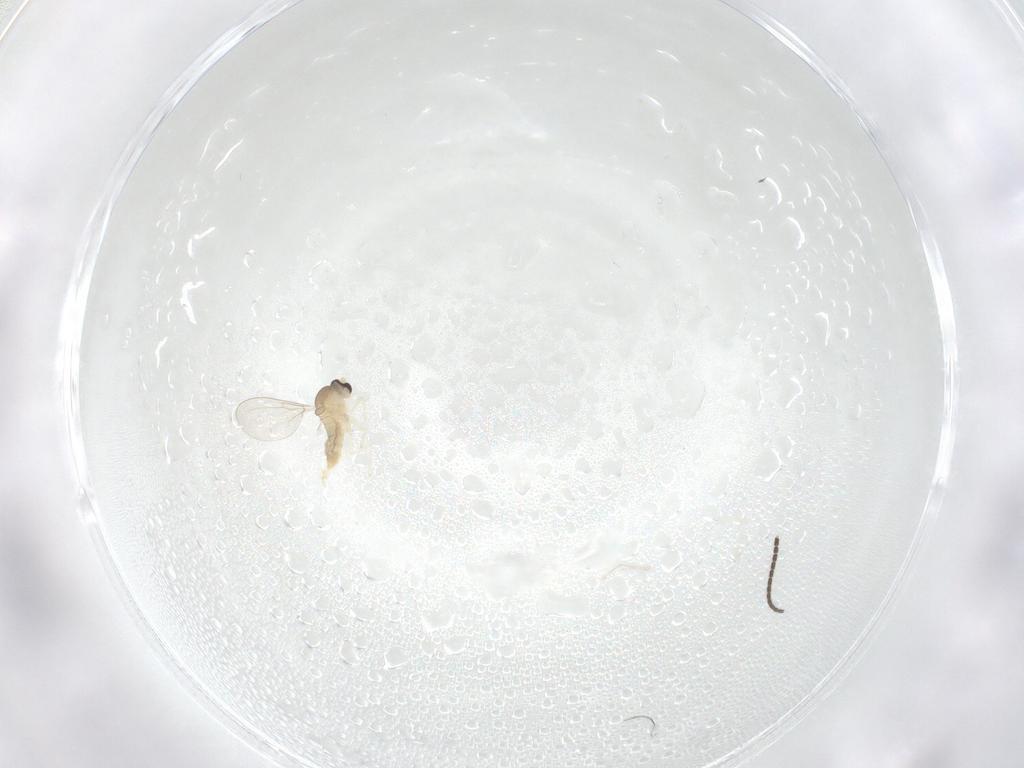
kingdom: Animalia
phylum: Arthropoda
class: Insecta
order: Diptera
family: Cecidomyiidae
